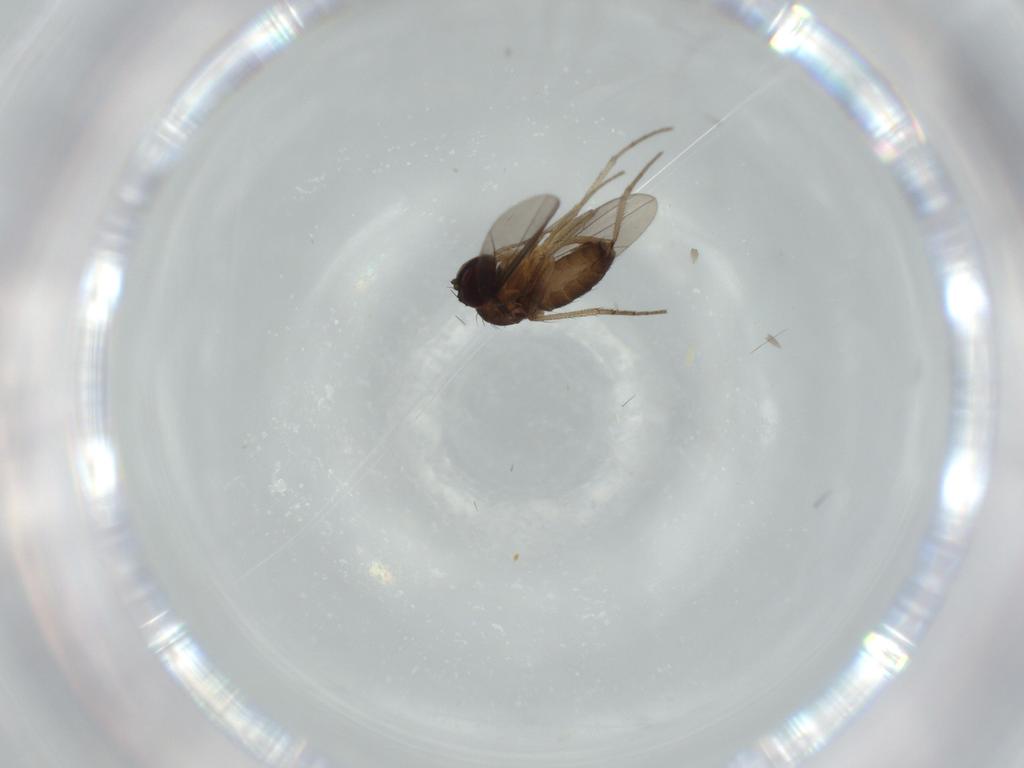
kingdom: Animalia
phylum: Arthropoda
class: Insecta
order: Diptera
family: Dolichopodidae
